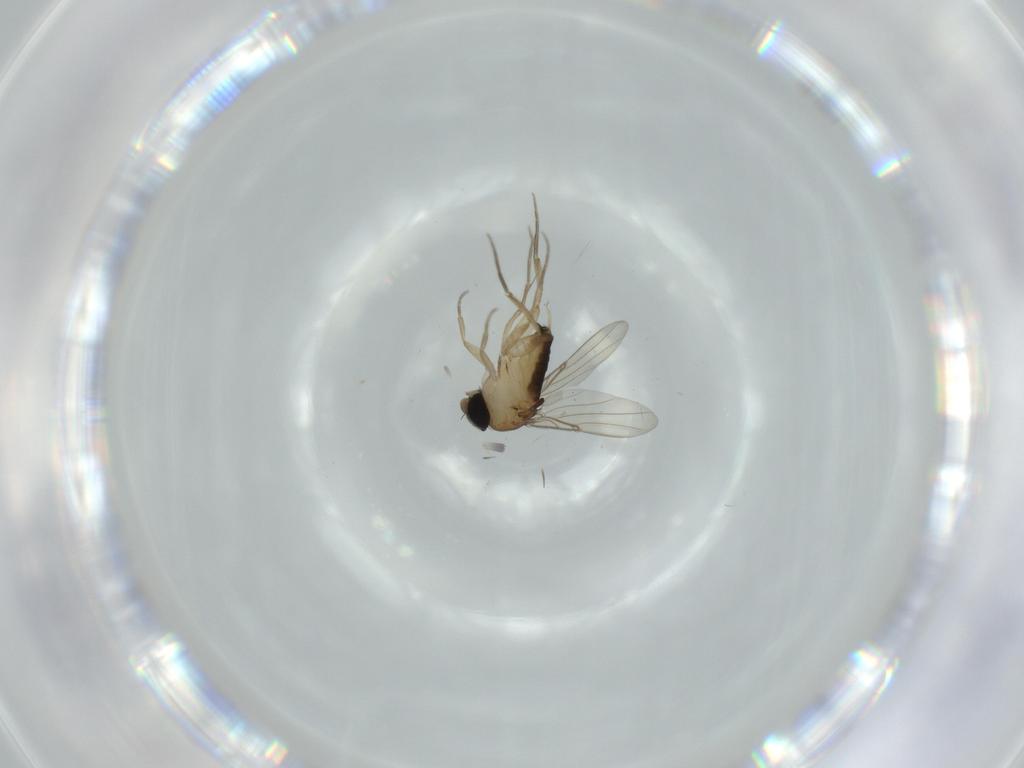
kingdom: Animalia
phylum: Arthropoda
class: Insecta
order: Diptera
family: Phoridae
